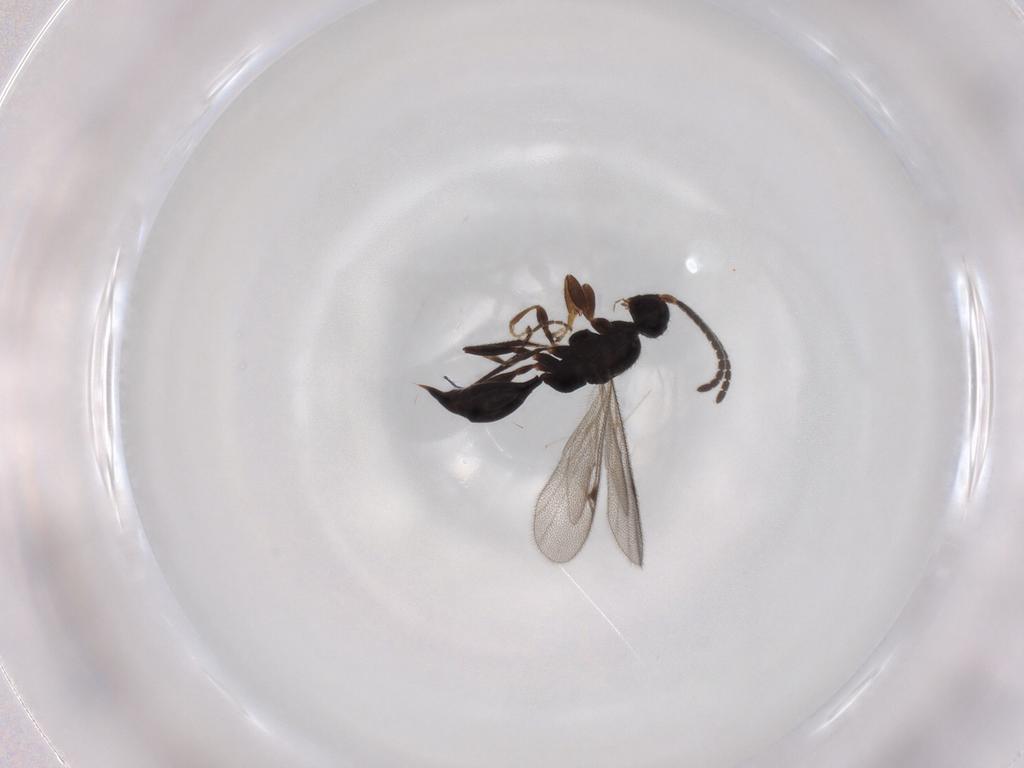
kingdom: Animalia
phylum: Arthropoda
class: Insecta
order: Hymenoptera
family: Proctotrupidae
